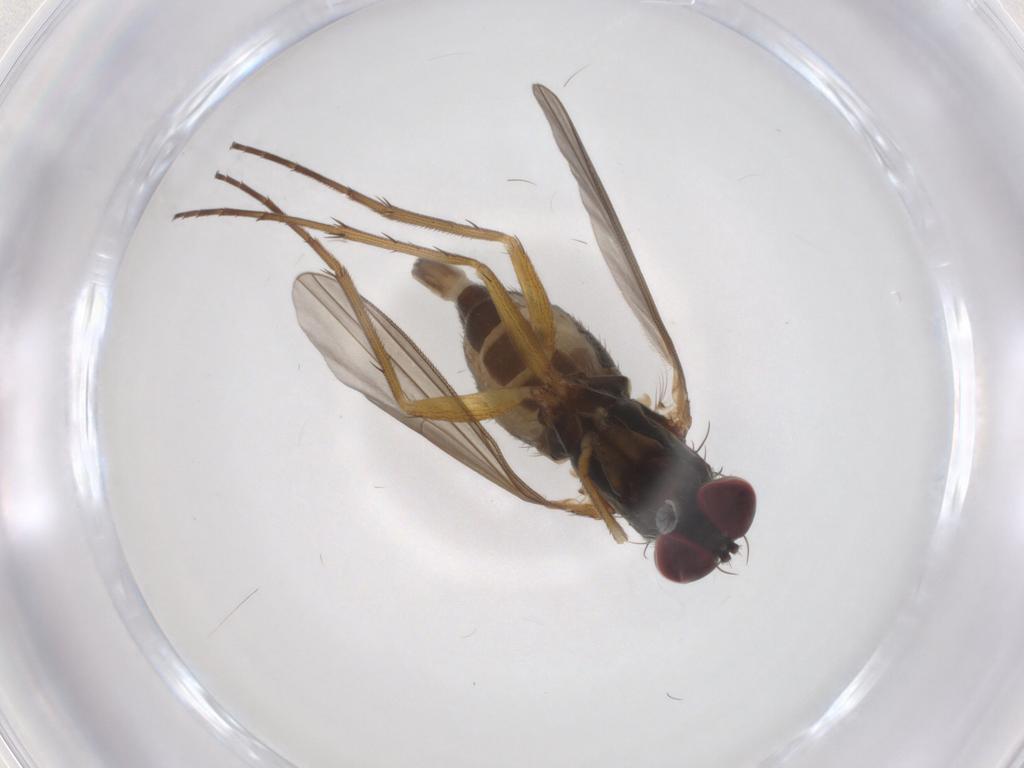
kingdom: Animalia
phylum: Arthropoda
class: Insecta
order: Diptera
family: Dolichopodidae
